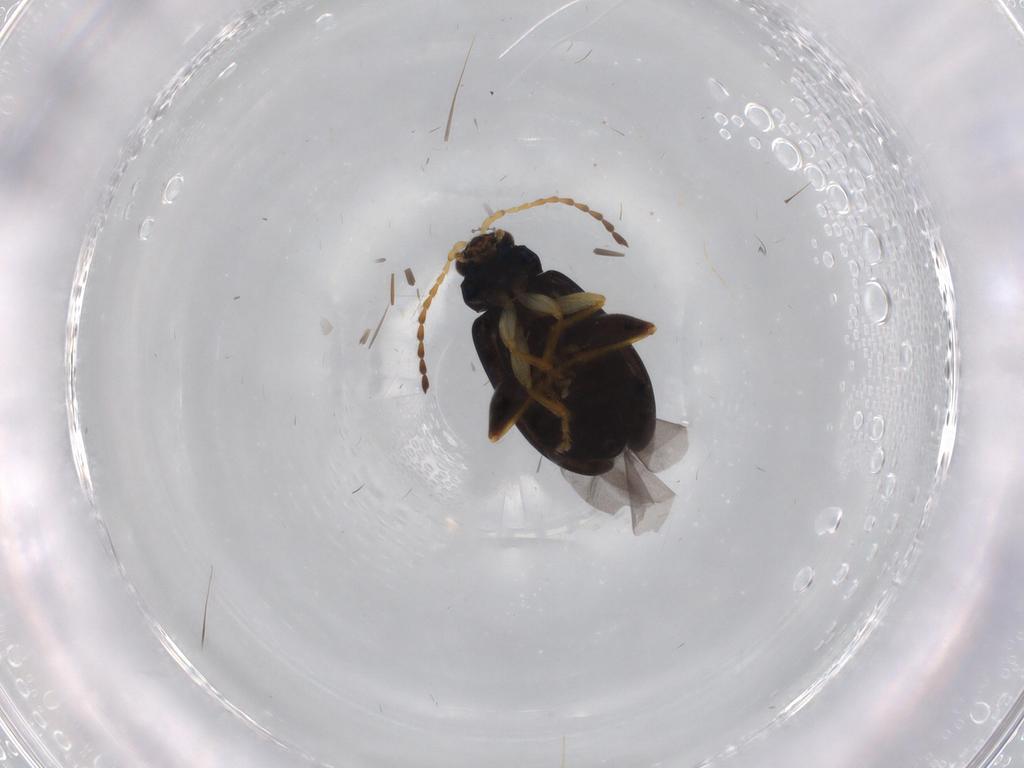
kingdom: Animalia
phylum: Arthropoda
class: Insecta
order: Coleoptera
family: Chrysomelidae
